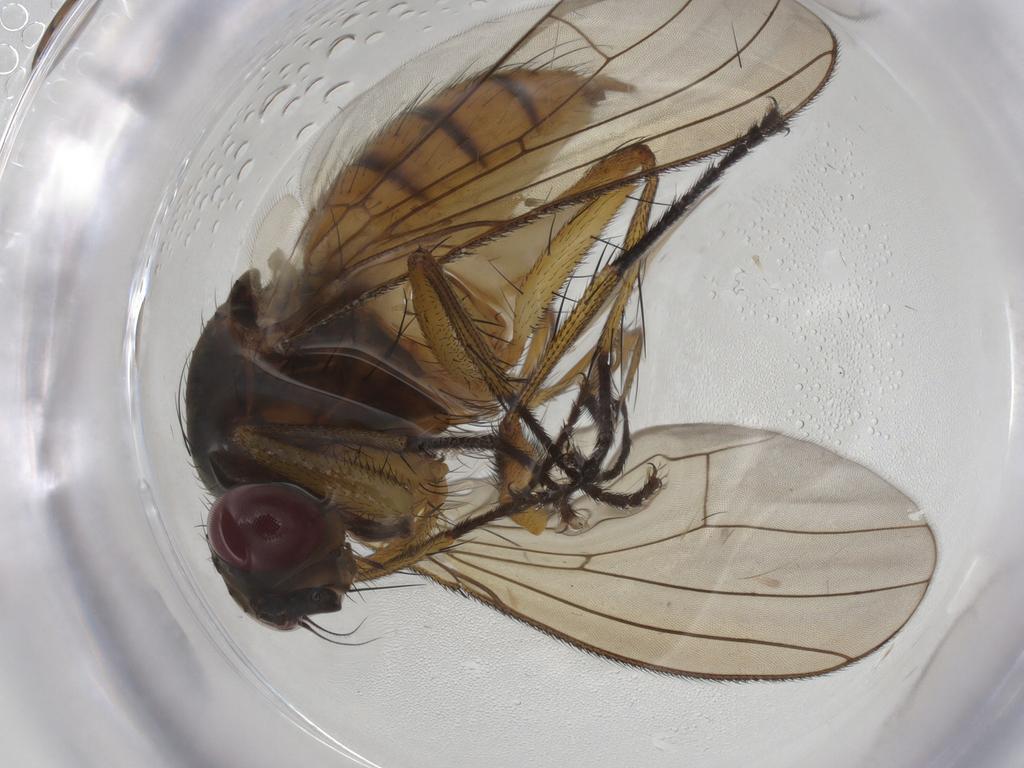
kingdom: Animalia
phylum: Arthropoda
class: Insecta
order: Diptera
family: Muscidae
